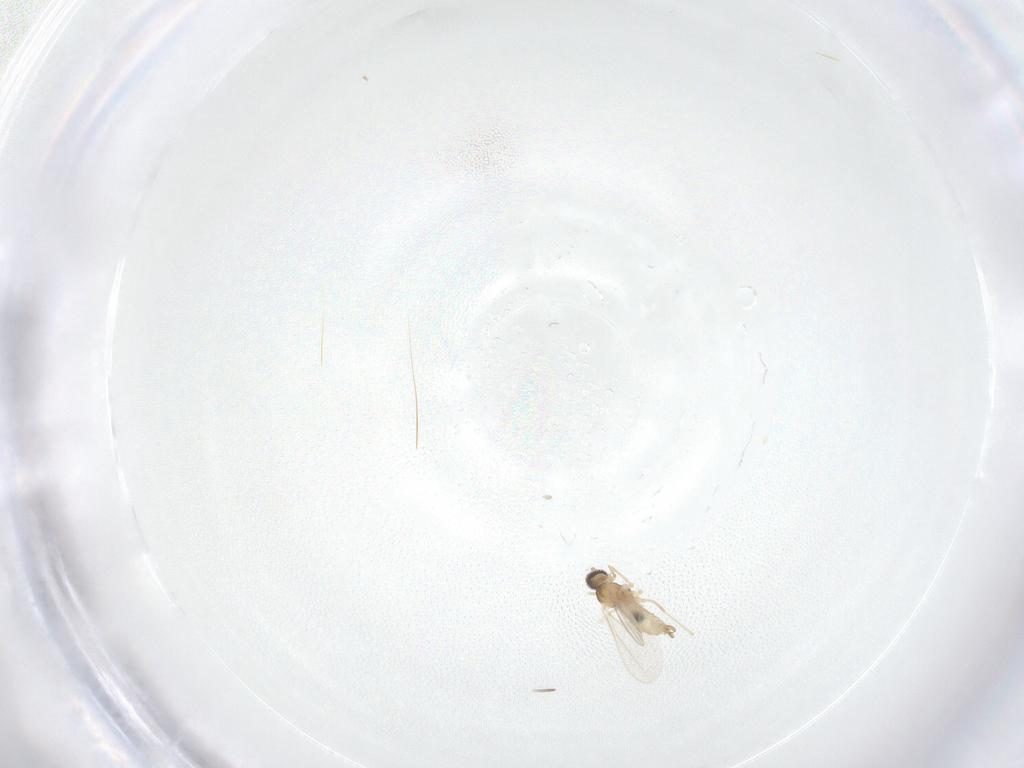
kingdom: Animalia
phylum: Arthropoda
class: Insecta
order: Diptera
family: Cecidomyiidae
